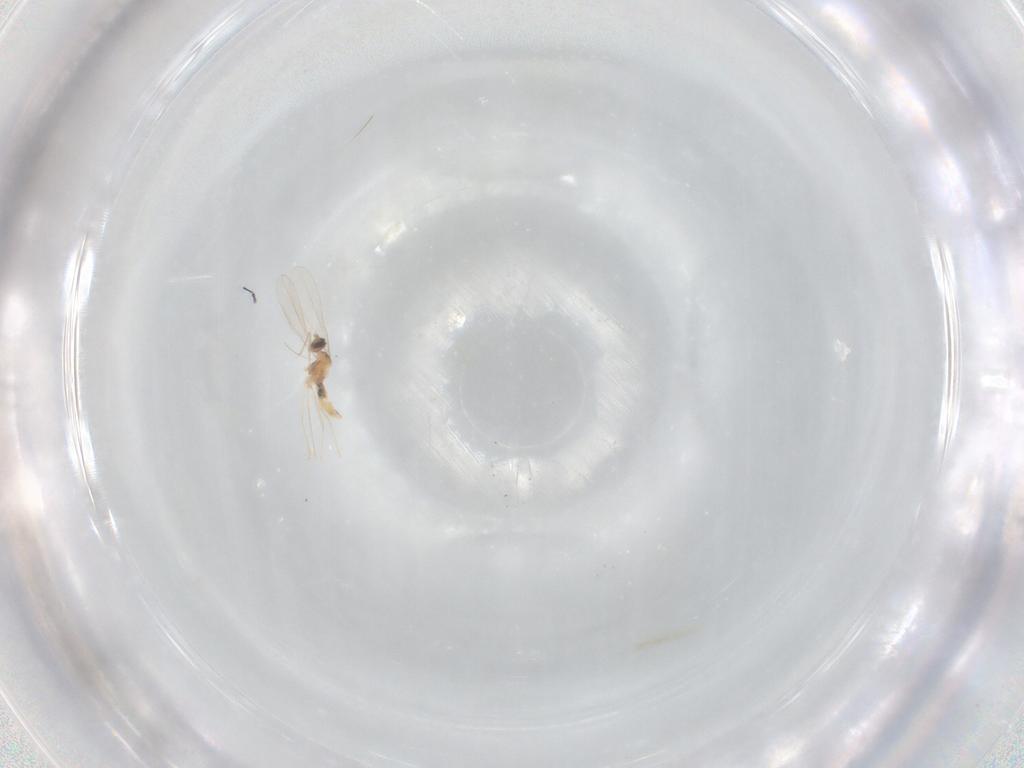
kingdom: Animalia
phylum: Arthropoda
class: Insecta
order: Diptera
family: Cecidomyiidae
